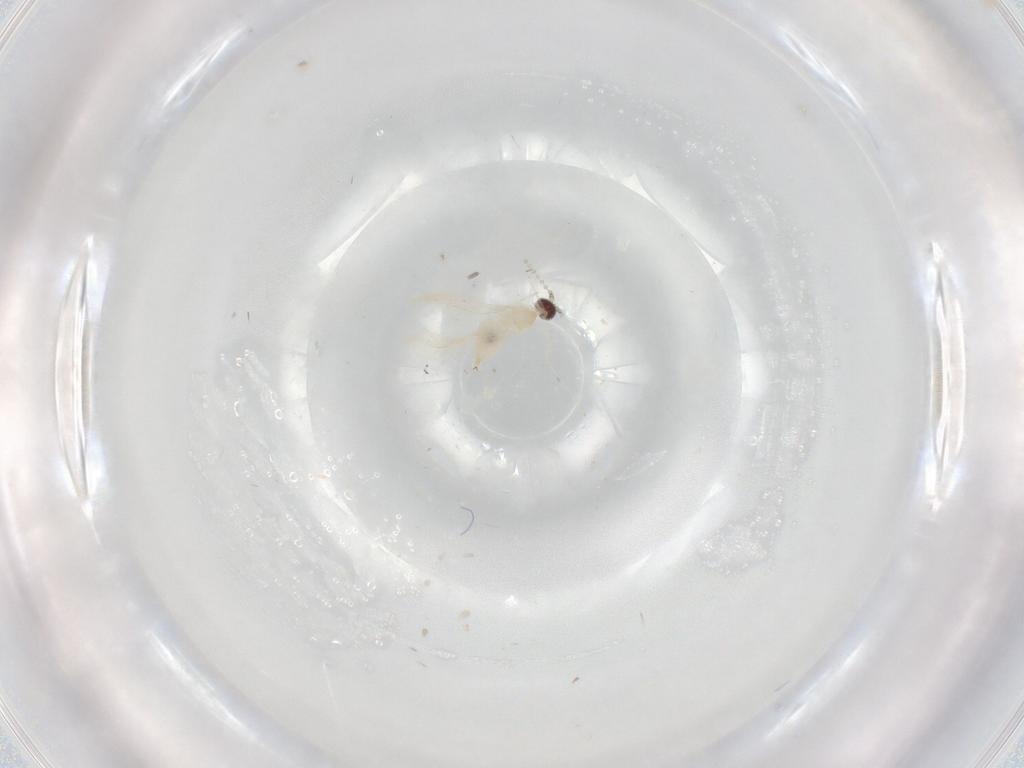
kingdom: Animalia
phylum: Arthropoda
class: Insecta
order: Diptera
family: Cecidomyiidae
